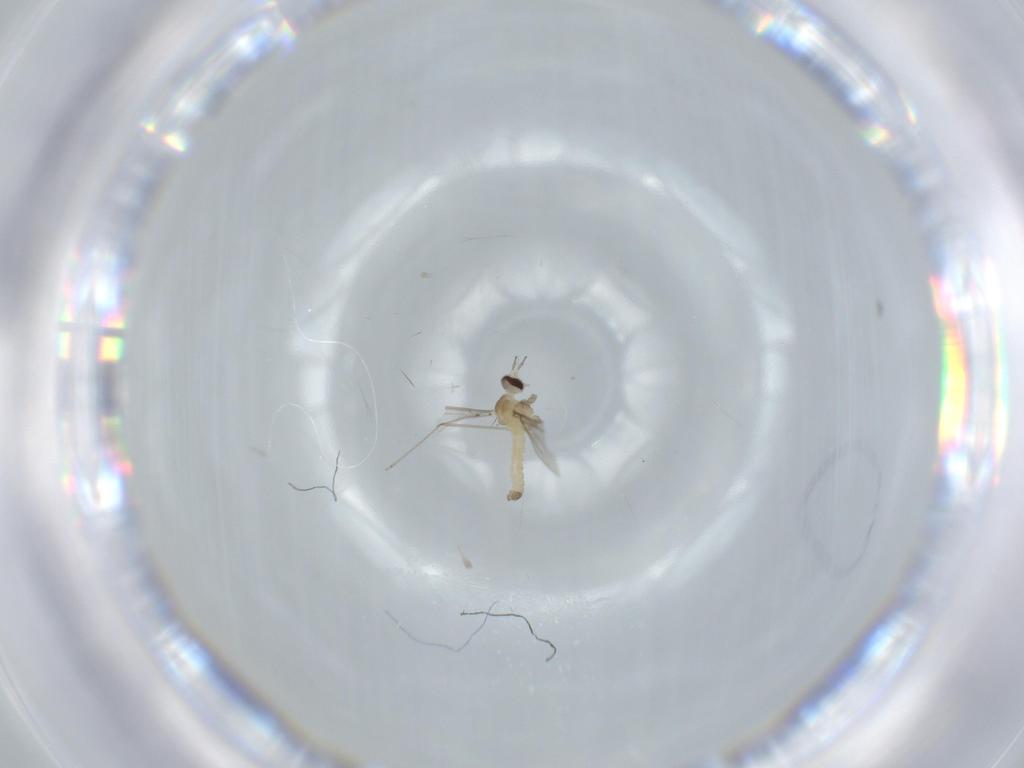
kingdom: Animalia
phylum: Arthropoda
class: Insecta
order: Diptera
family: Cecidomyiidae
